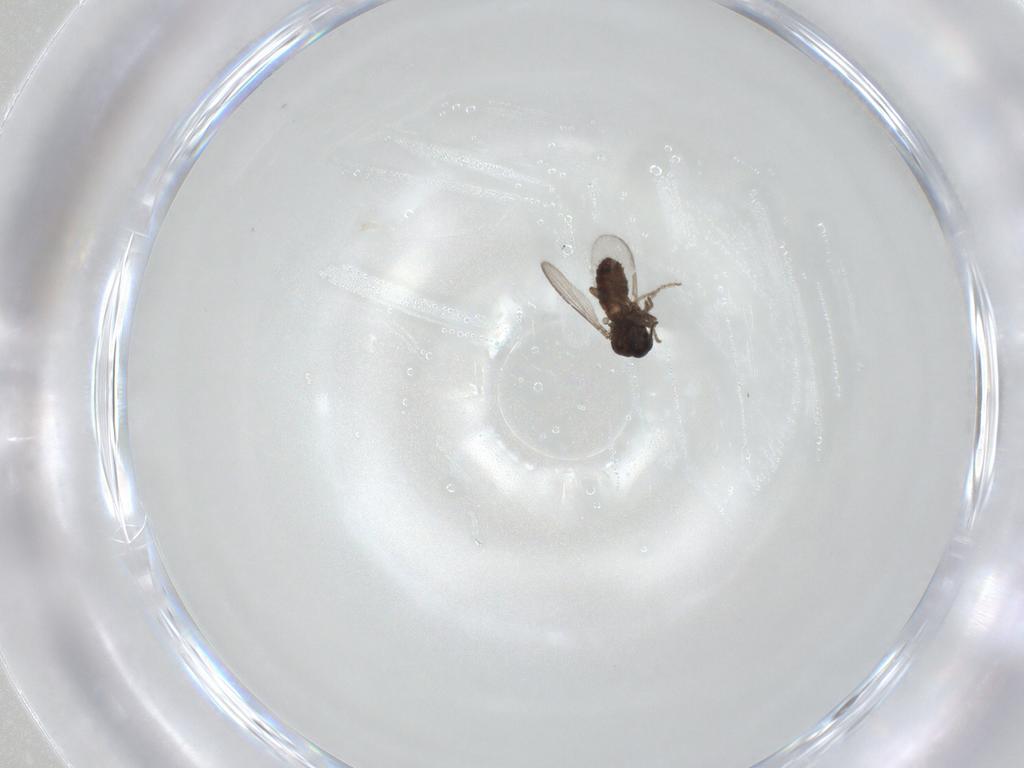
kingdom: Animalia
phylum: Arthropoda
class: Insecta
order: Diptera
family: Ceratopogonidae
